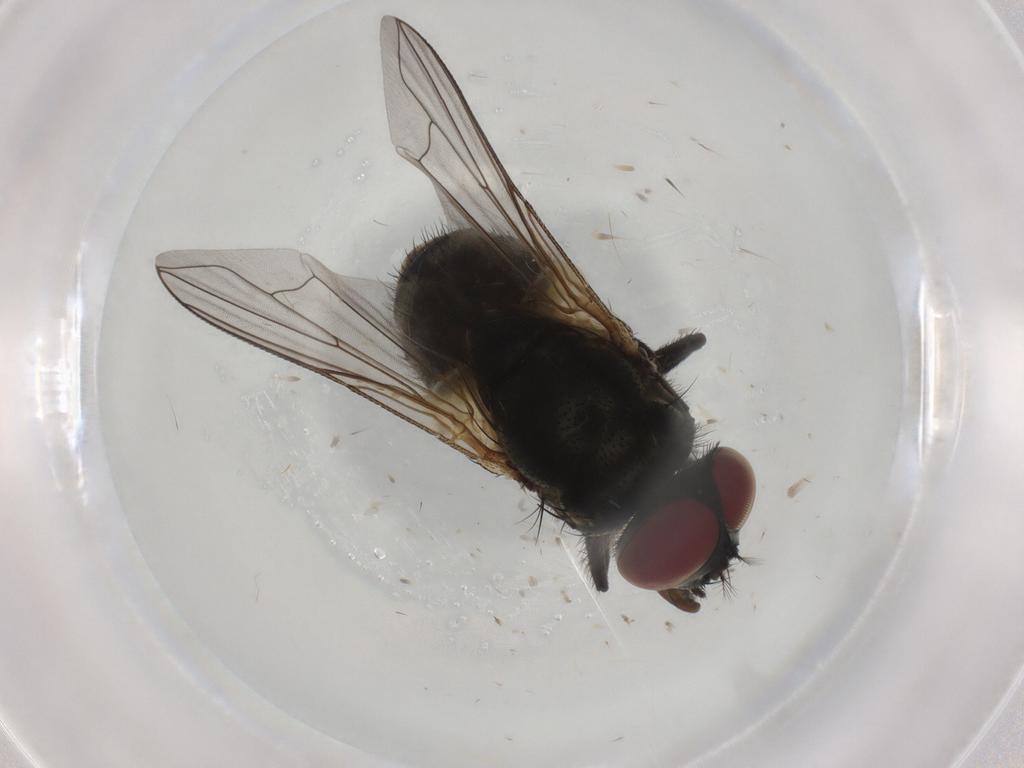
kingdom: Animalia
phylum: Arthropoda
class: Insecta
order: Diptera
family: Muscidae
